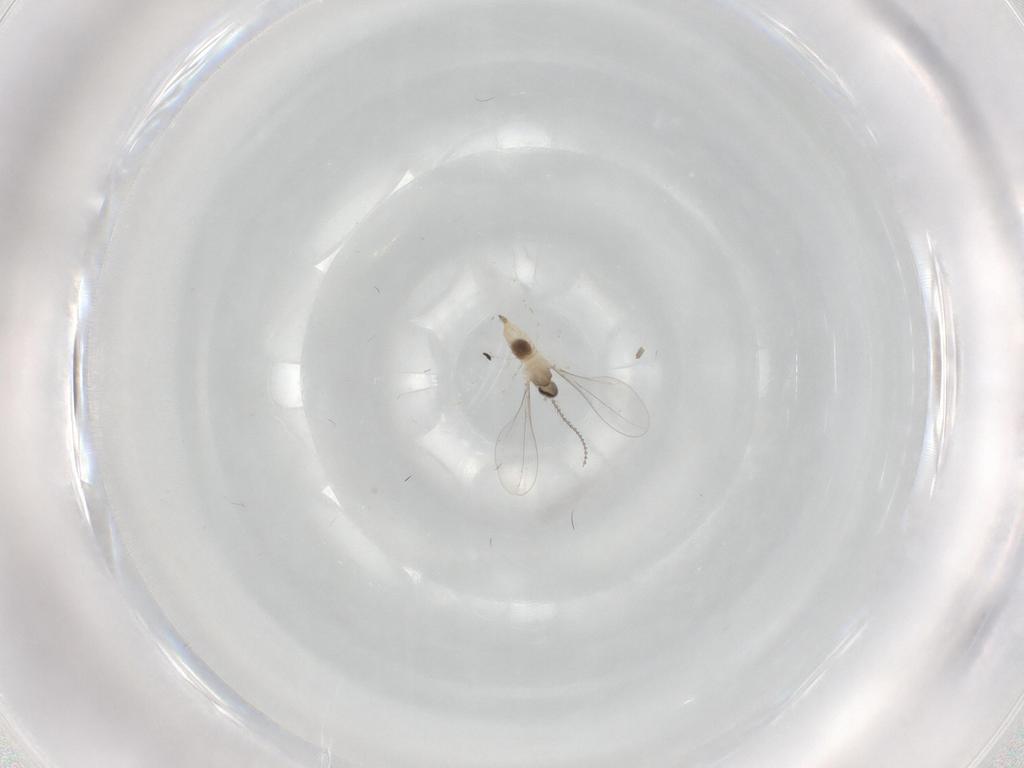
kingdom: Animalia
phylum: Arthropoda
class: Insecta
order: Diptera
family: Cecidomyiidae
